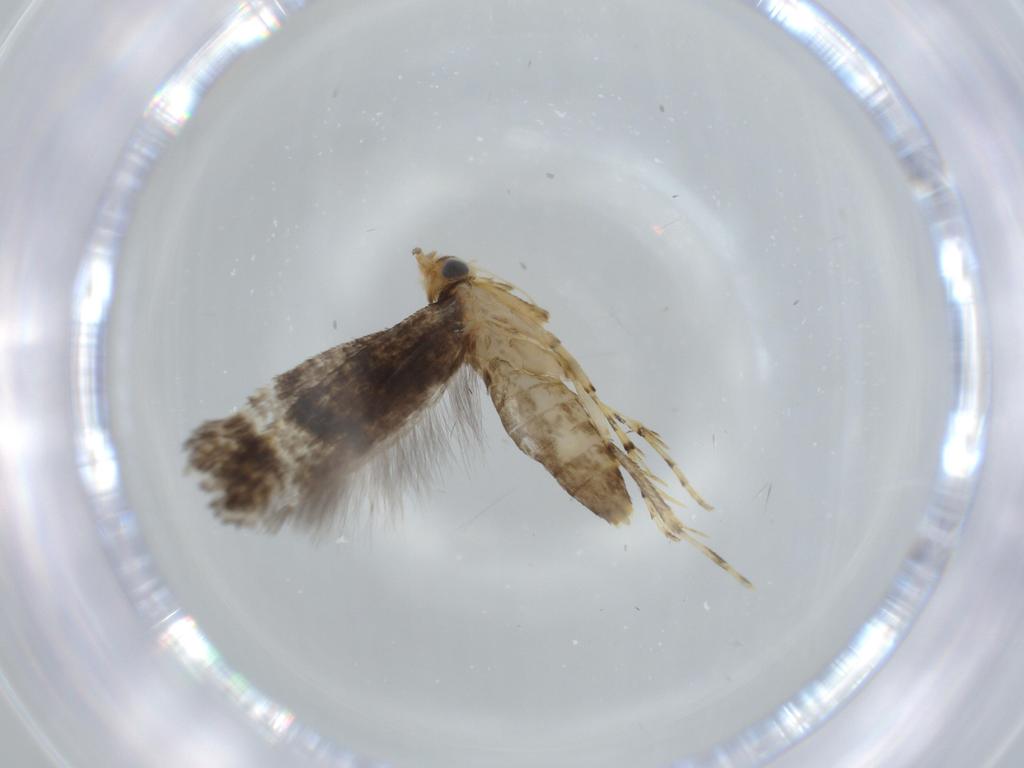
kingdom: Animalia
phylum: Arthropoda
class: Insecta
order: Lepidoptera
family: Argyresthiidae
